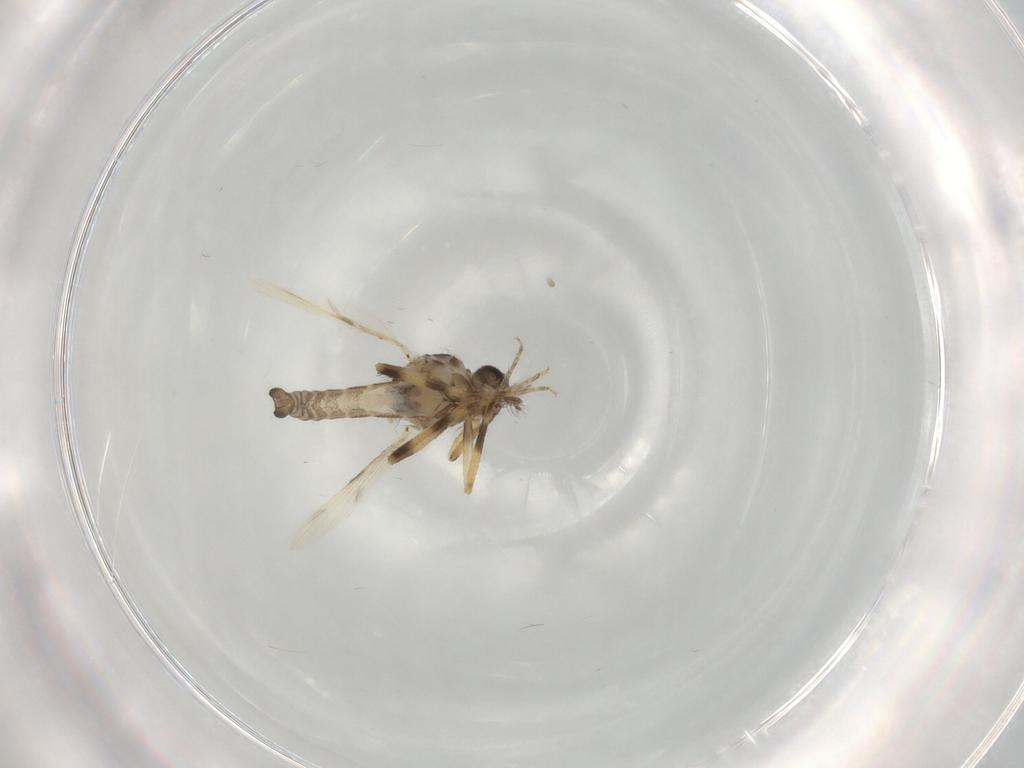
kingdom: Animalia
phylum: Arthropoda
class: Insecta
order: Diptera
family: Ceratopogonidae
